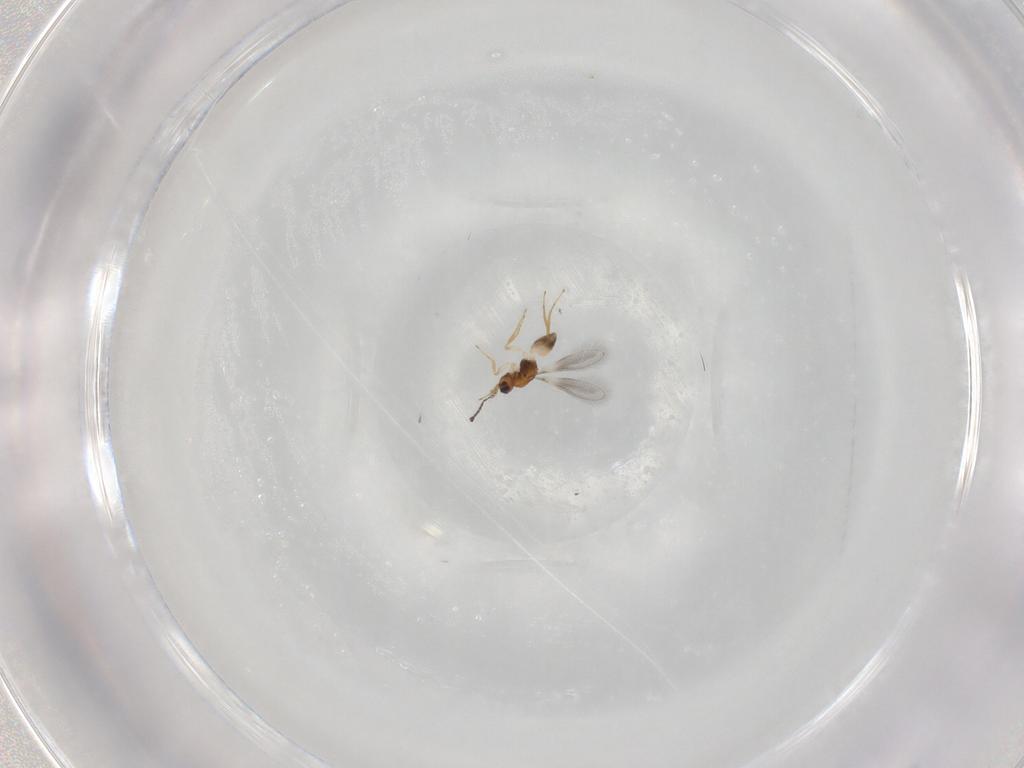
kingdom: Animalia
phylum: Arthropoda
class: Insecta
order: Hymenoptera
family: Mymaridae
